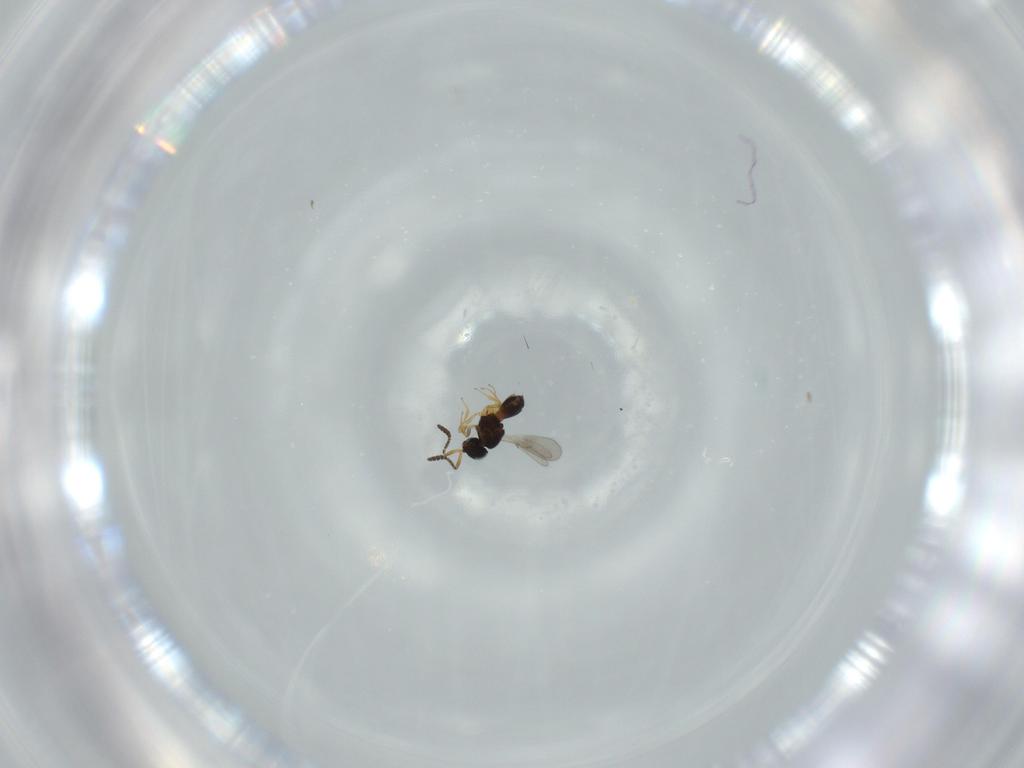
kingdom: Animalia
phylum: Arthropoda
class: Insecta
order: Hymenoptera
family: Scelionidae
